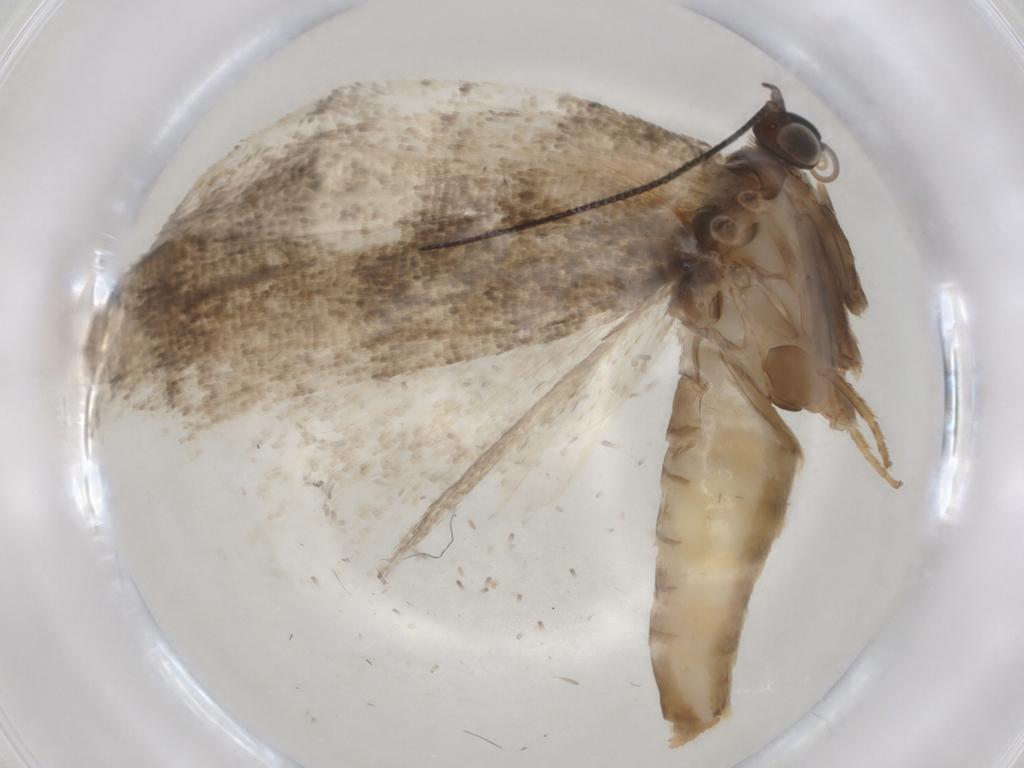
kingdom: Animalia
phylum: Arthropoda
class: Insecta
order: Lepidoptera
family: Tortricidae
